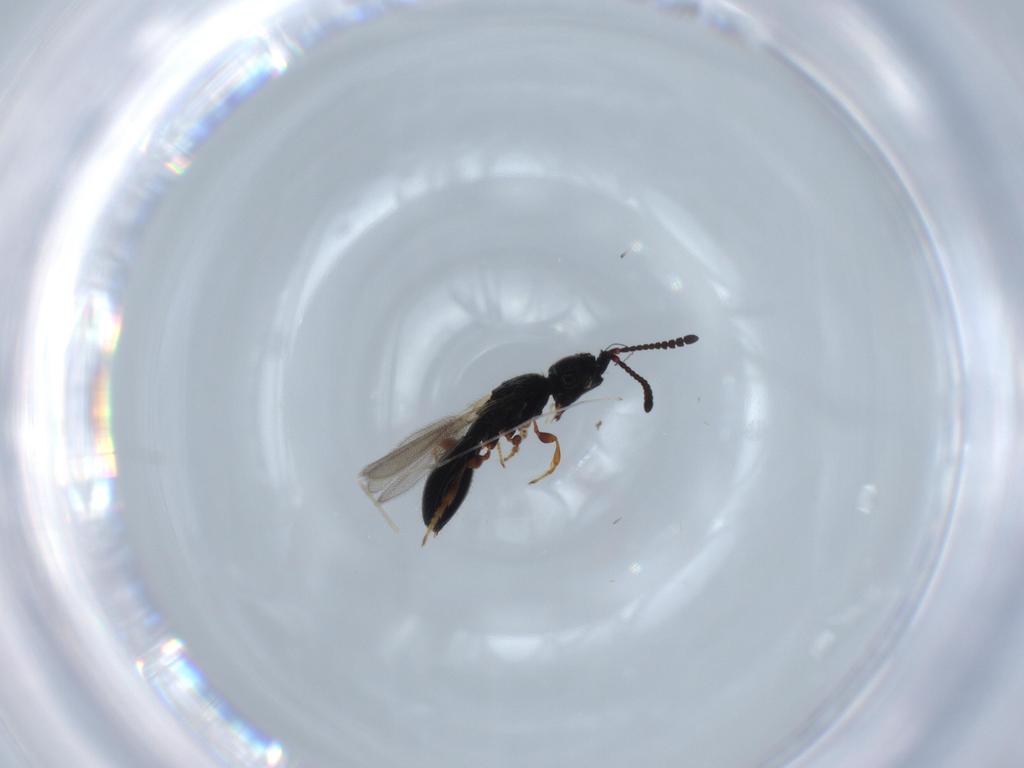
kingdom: Animalia
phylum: Arthropoda
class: Insecta
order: Hymenoptera
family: Diapriidae
